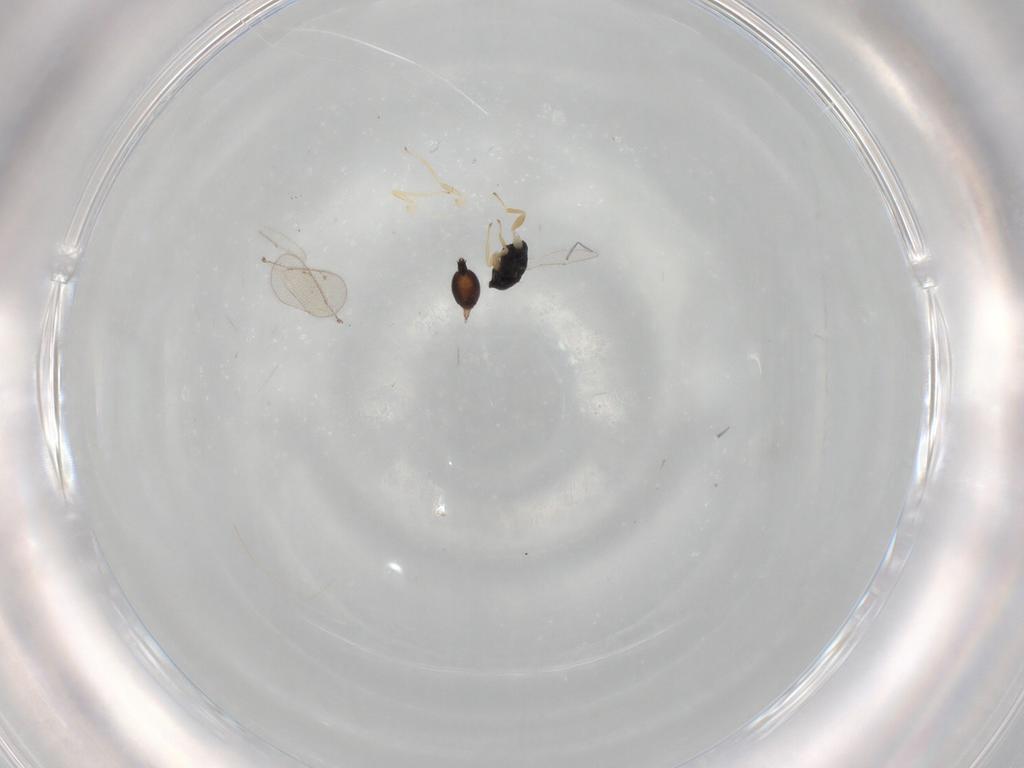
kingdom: Animalia
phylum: Arthropoda
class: Insecta
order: Hymenoptera
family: Eulophidae
